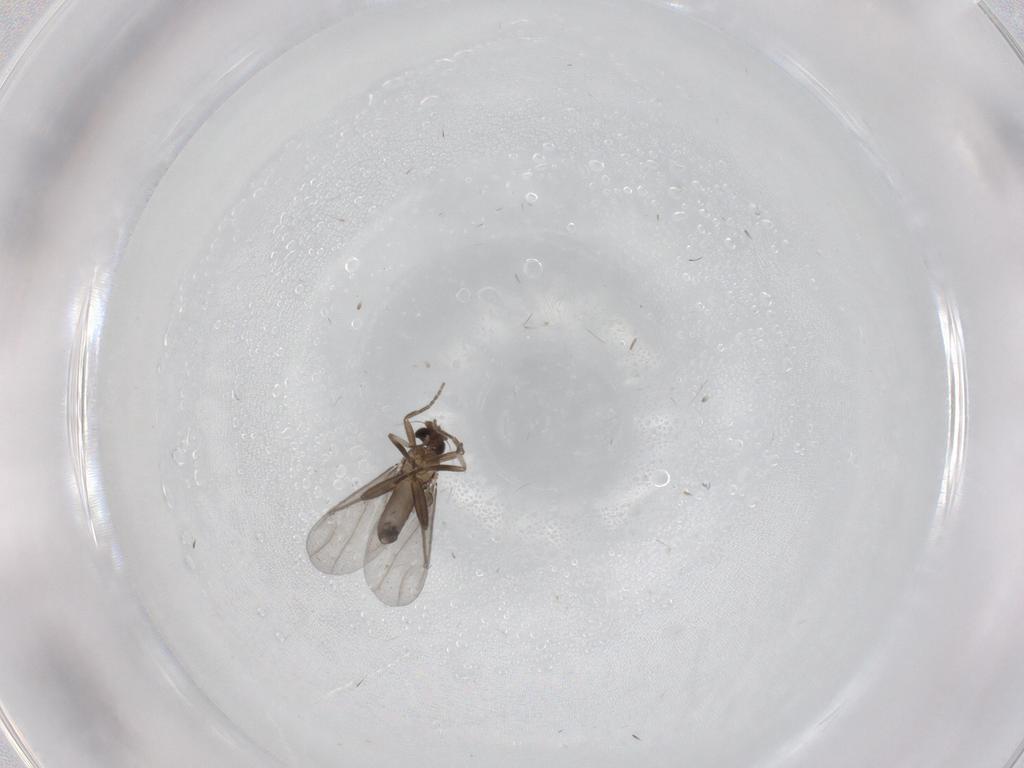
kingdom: Animalia
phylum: Arthropoda
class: Insecta
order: Diptera
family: Phoridae
